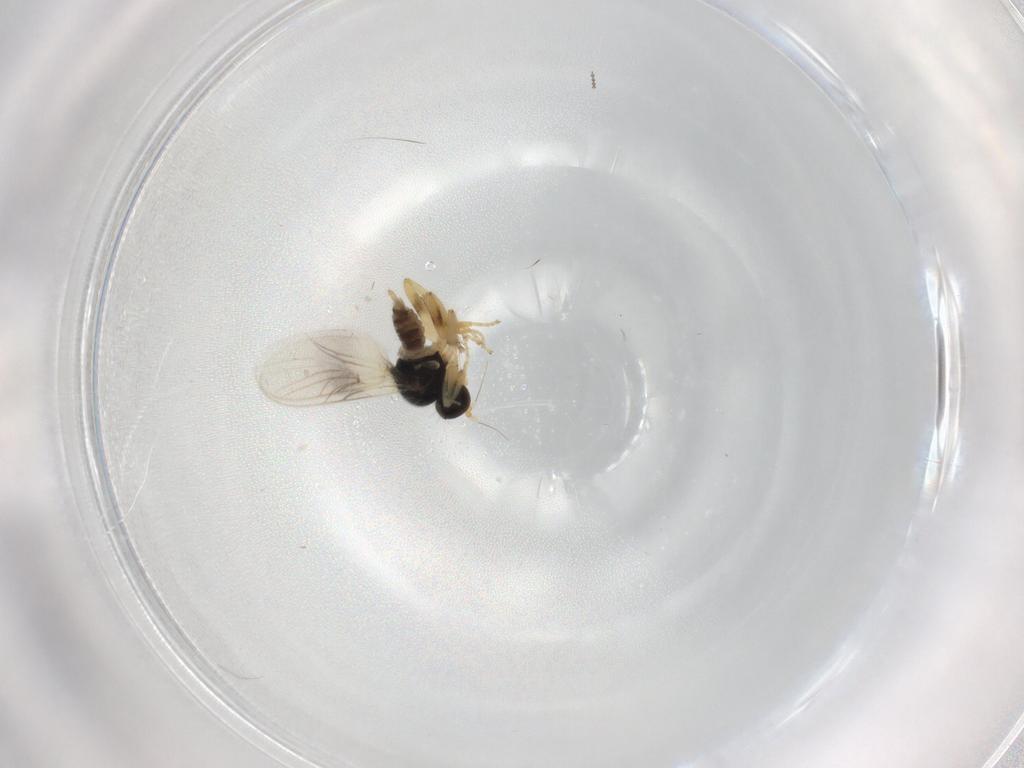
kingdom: Animalia
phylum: Arthropoda
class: Insecta
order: Diptera
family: Hybotidae
